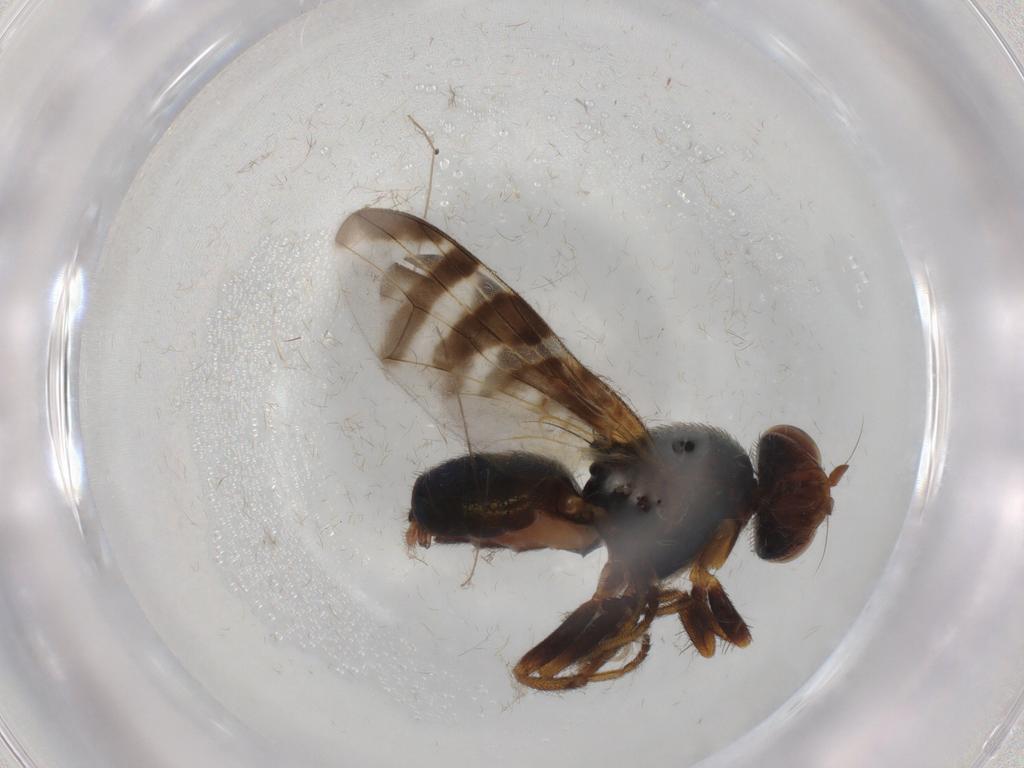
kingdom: Animalia
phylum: Arthropoda
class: Insecta
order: Diptera
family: Platystomatidae
